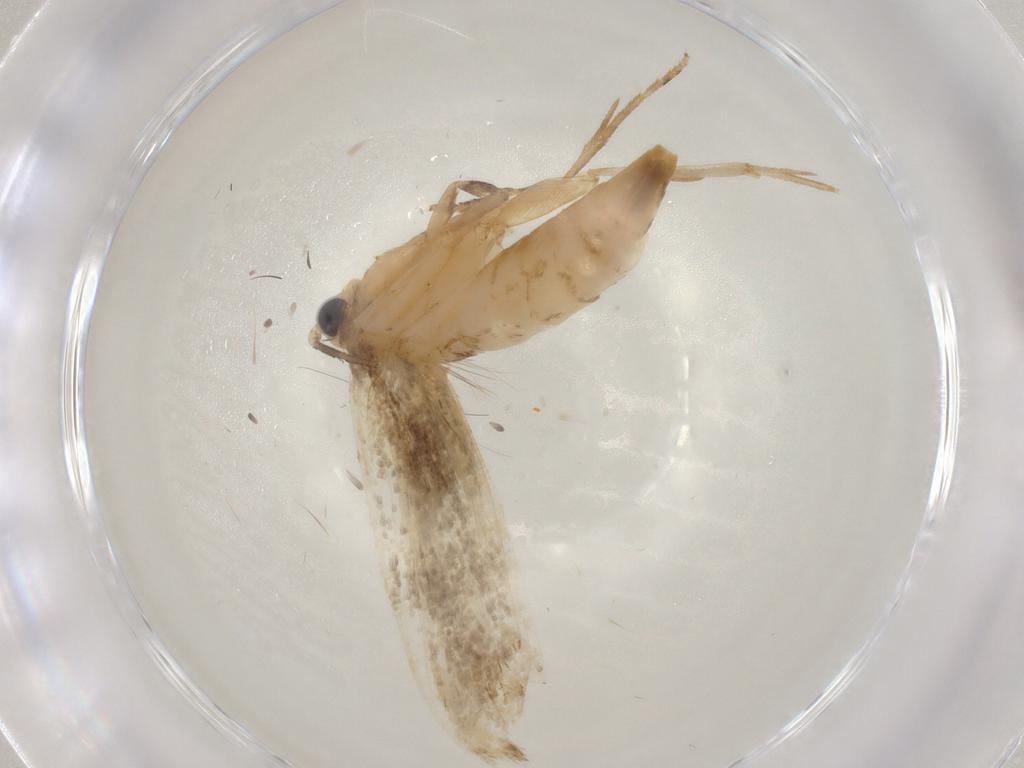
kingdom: Animalia
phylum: Arthropoda
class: Insecta
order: Lepidoptera
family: Tineidae
